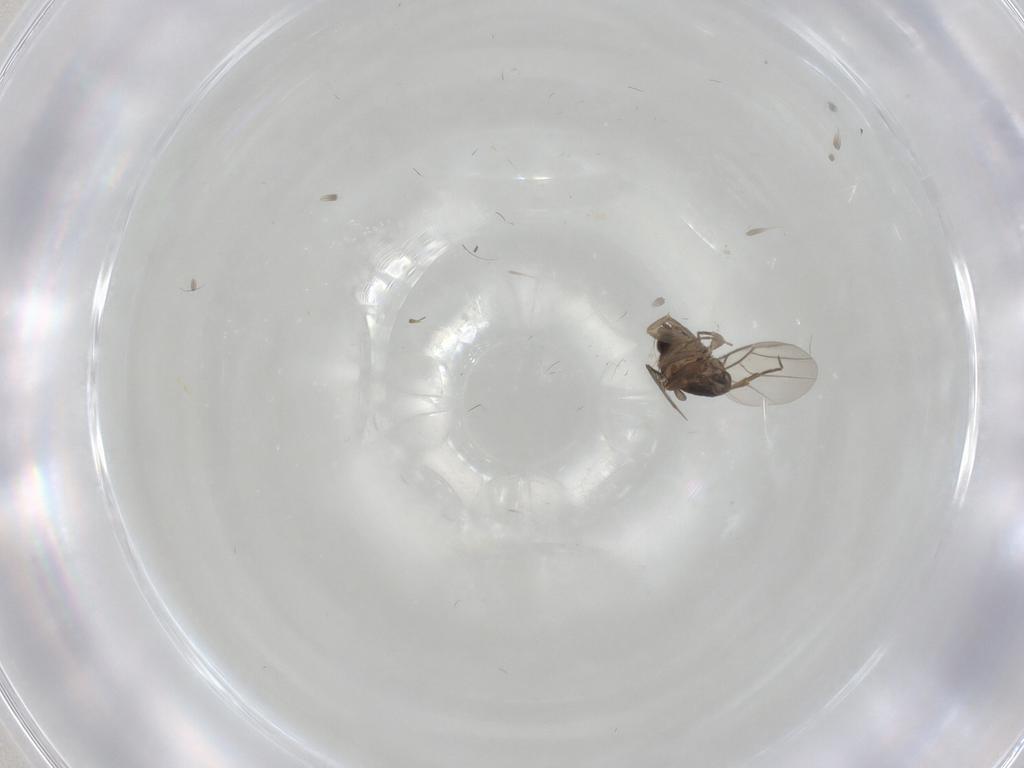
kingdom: Animalia
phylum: Arthropoda
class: Insecta
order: Diptera
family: Phoridae
